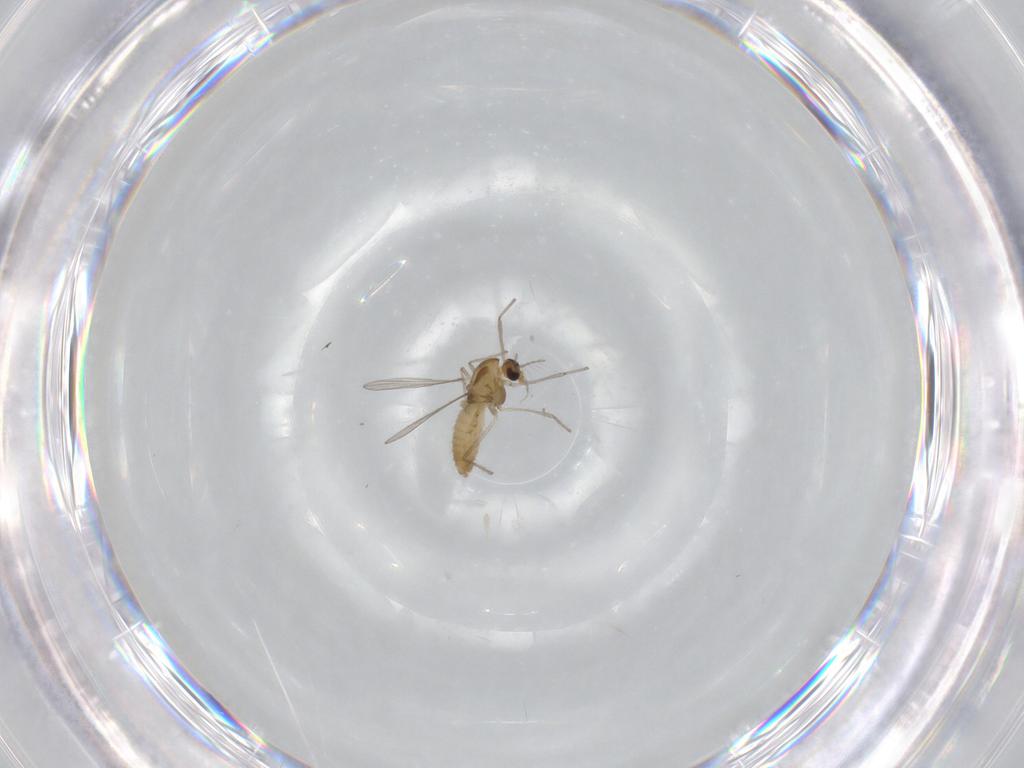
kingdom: Animalia
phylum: Arthropoda
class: Insecta
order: Diptera
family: Chironomidae
